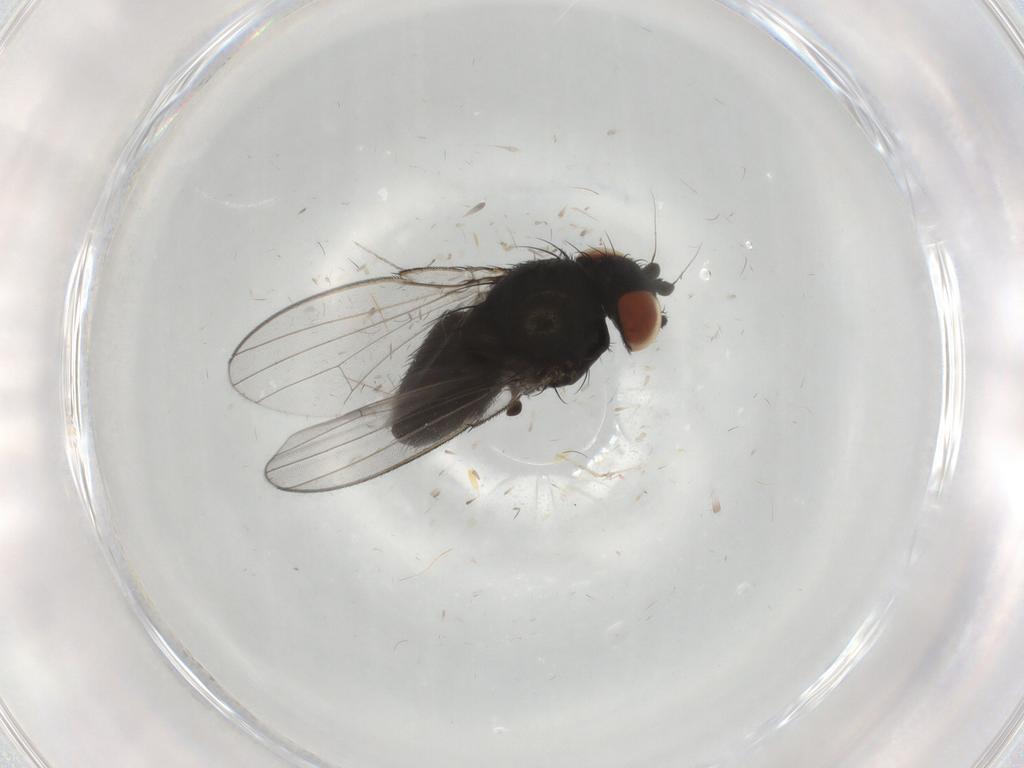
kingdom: Animalia
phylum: Arthropoda
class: Insecta
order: Diptera
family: Milichiidae
